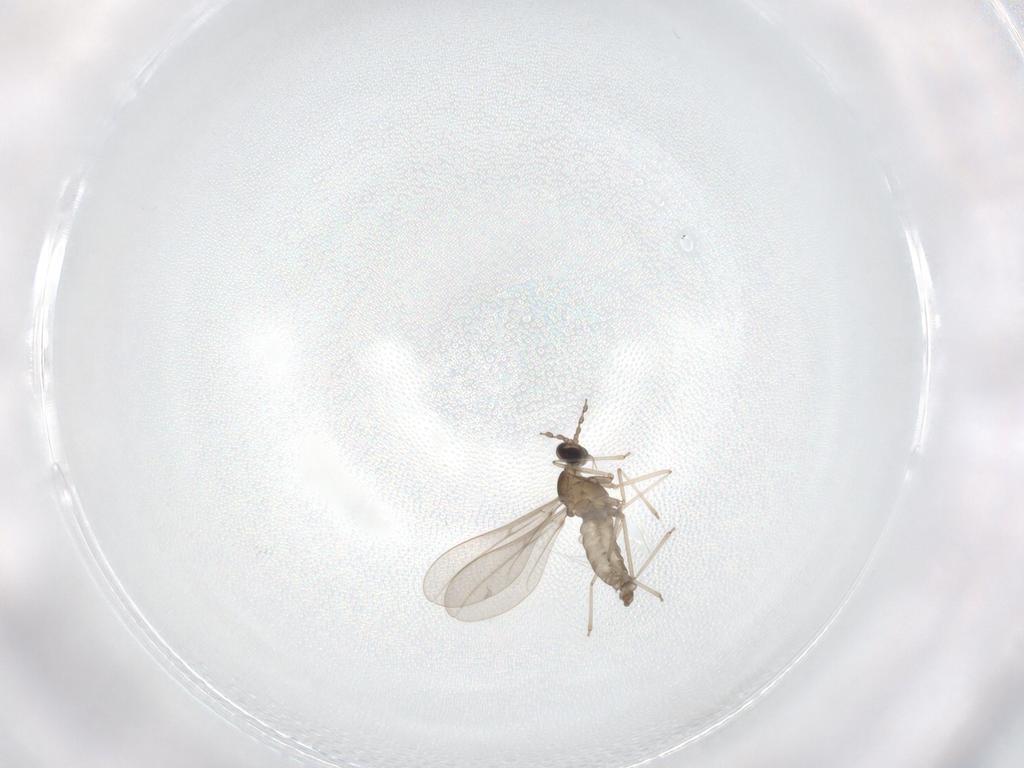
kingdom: Animalia
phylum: Arthropoda
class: Insecta
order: Diptera
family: Cecidomyiidae
